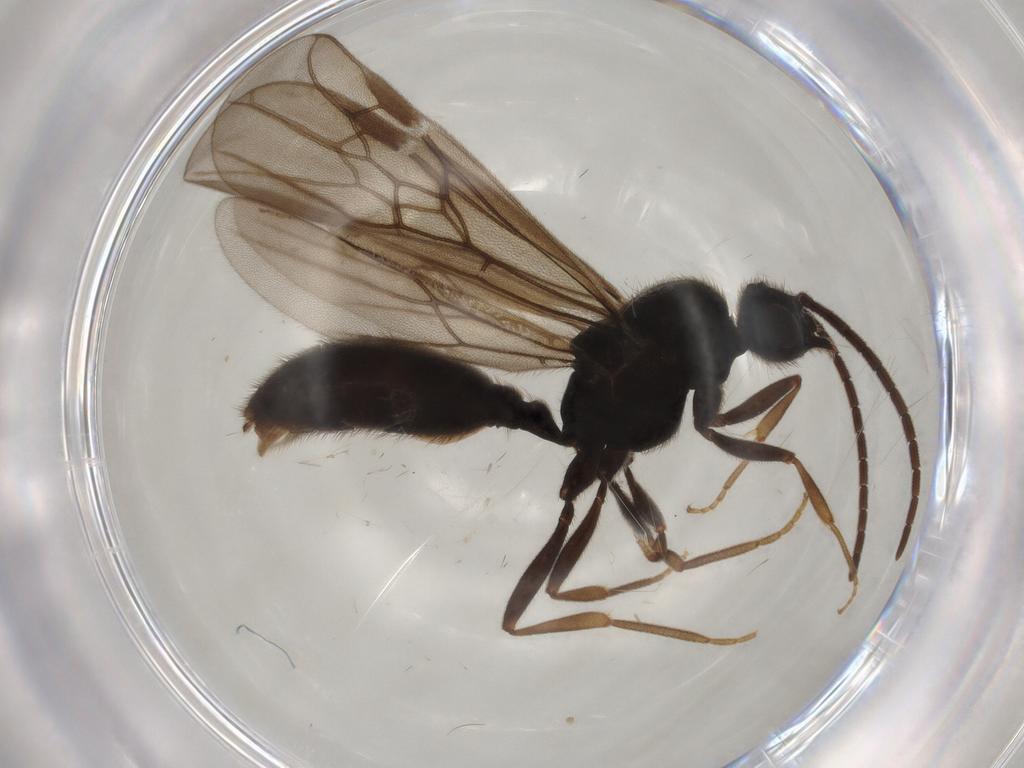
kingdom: Animalia
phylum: Arthropoda
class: Insecta
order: Hymenoptera
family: Formicidae
